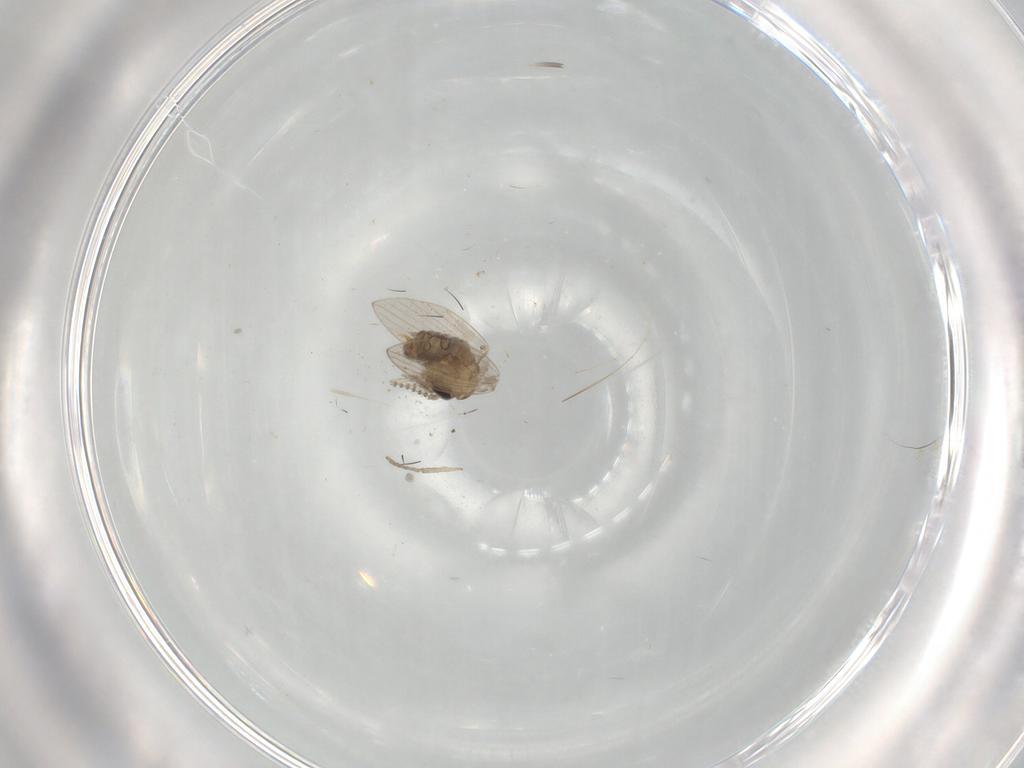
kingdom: Animalia
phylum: Arthropoda
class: Insecta
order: Diptera
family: Psychodidae
